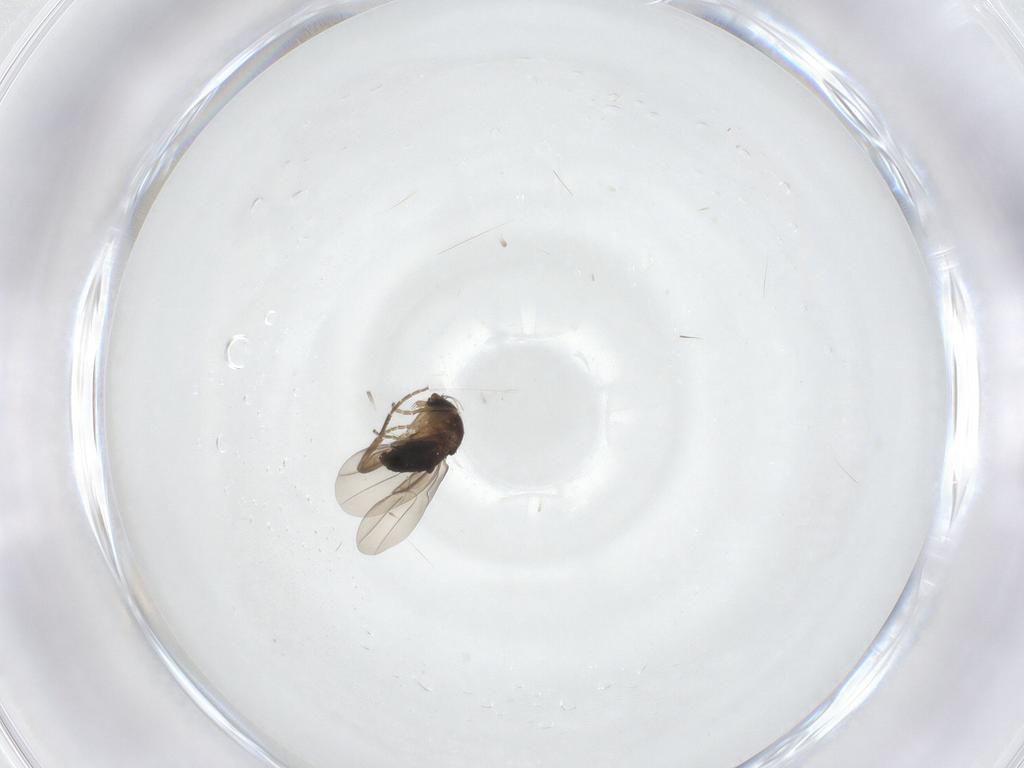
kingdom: Animalia
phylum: Arthropoda
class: Insecta
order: Diptera
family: Phoridae
